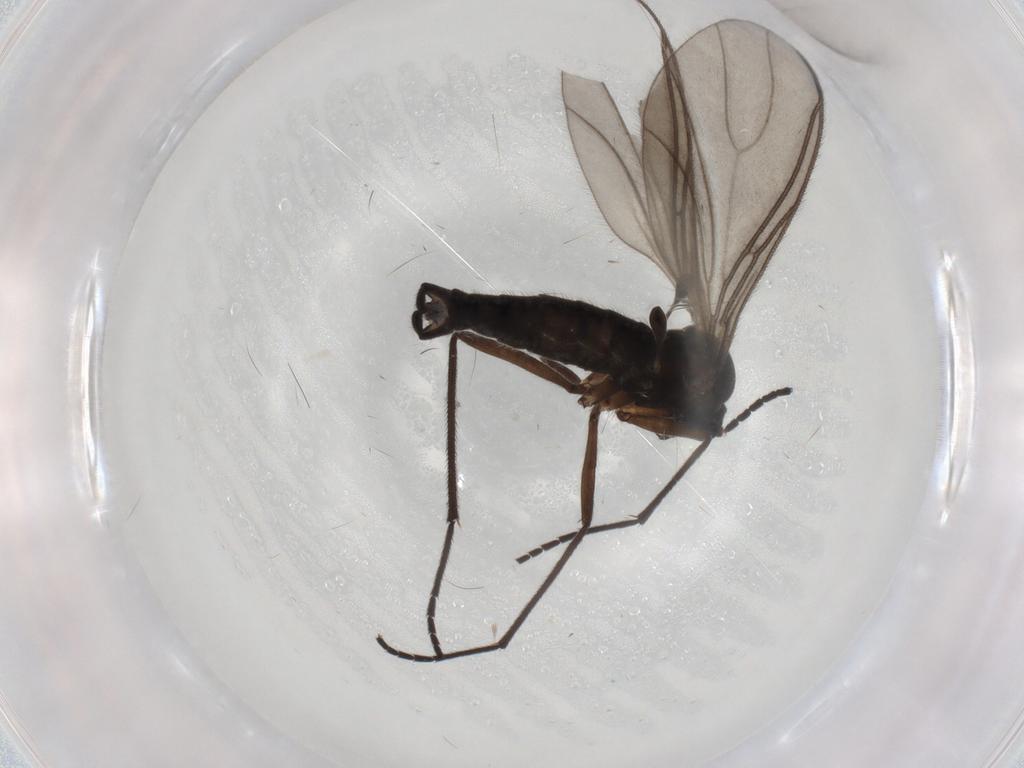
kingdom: Animalia
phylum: Arthropoda
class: Insecta
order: Diptera
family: Sciaridae
